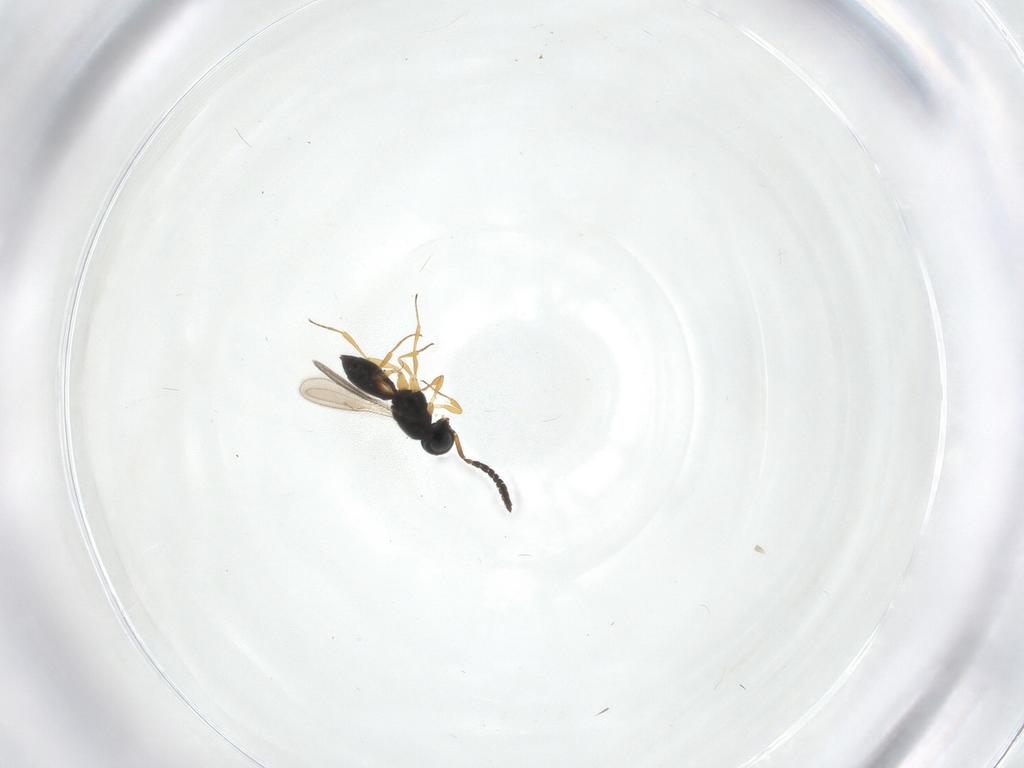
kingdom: Animalia
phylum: Arthropoda
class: Insecta
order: Hymenoptera
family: Scelionidae
